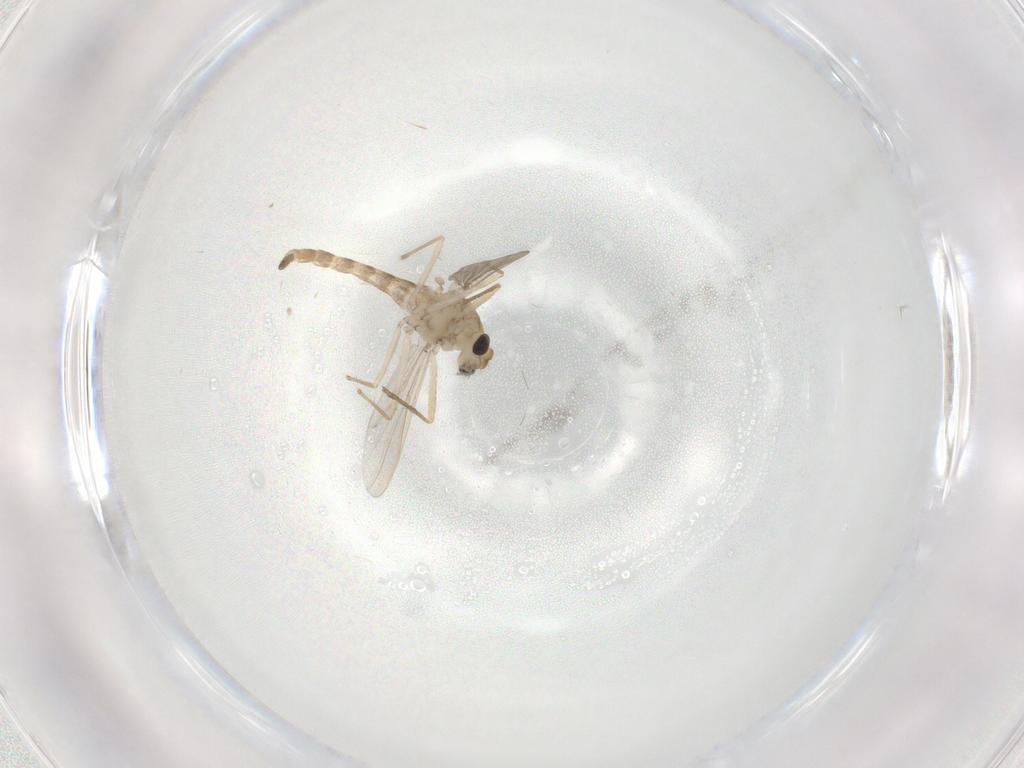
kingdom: Animalia
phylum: Arthropoda
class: Insecta
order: Diptera
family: Chironomidae
